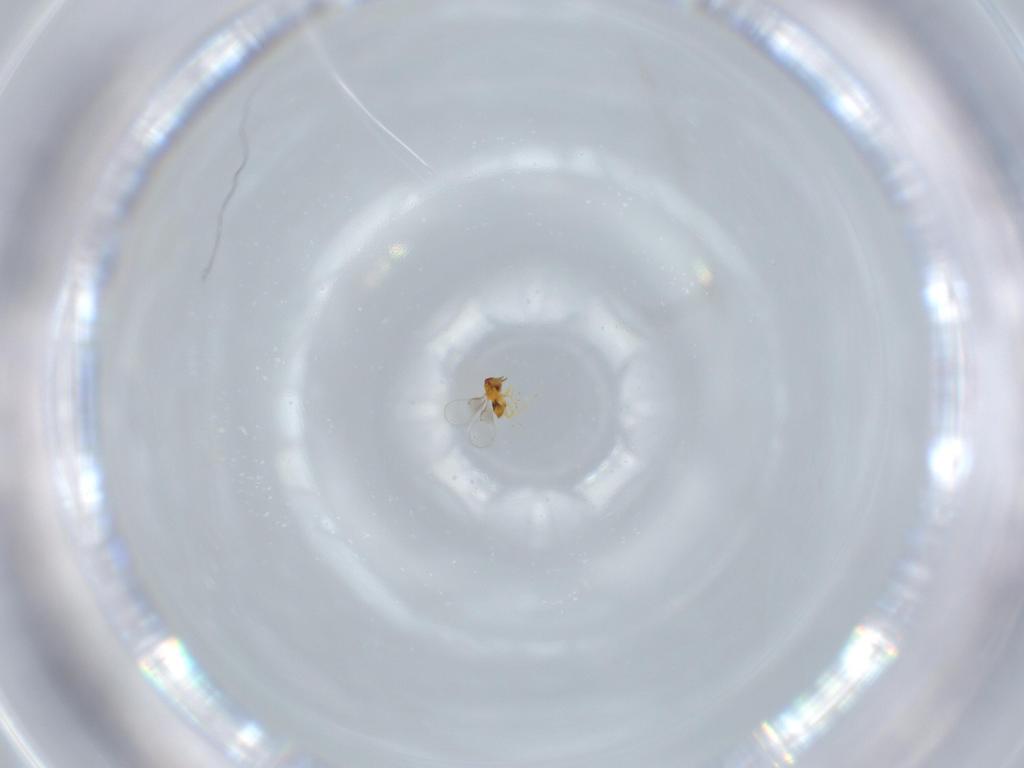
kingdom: Animalia
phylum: Arthropoda
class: Insecta
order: Hymenoptera
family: Trichogrammatidae
